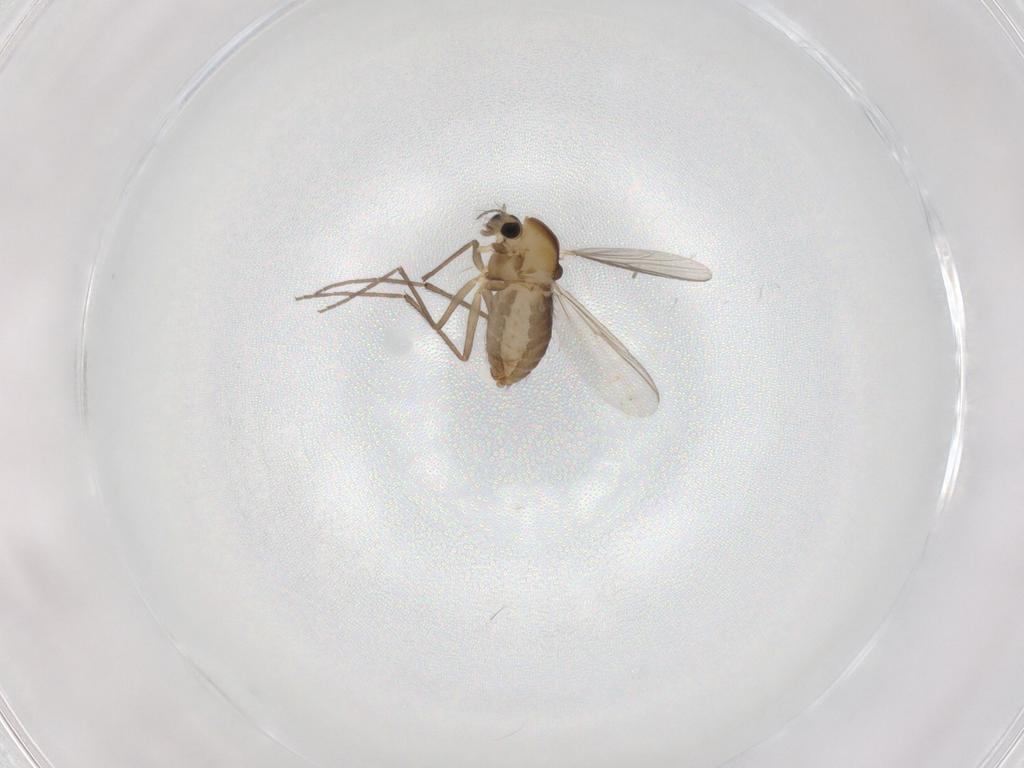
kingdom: Animalia
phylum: Arthropoda
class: Insecta
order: Diptera
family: Chironomidae
